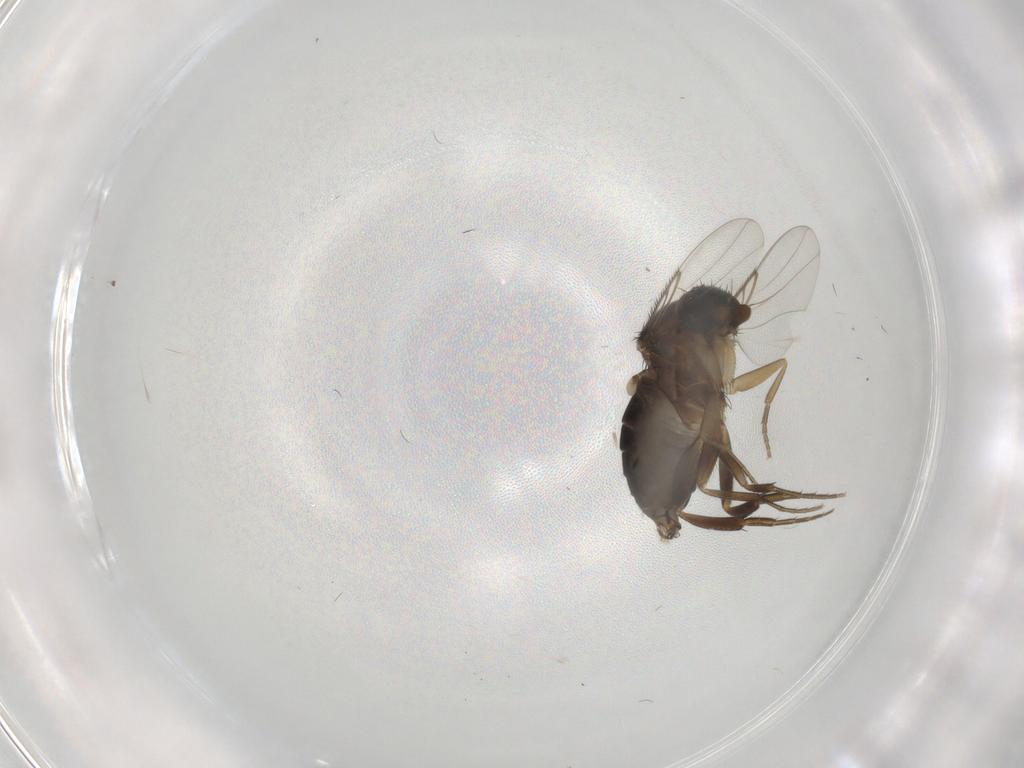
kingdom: Animalia
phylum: Arthropoda
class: Insecta
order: Diptera
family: Phoridae
